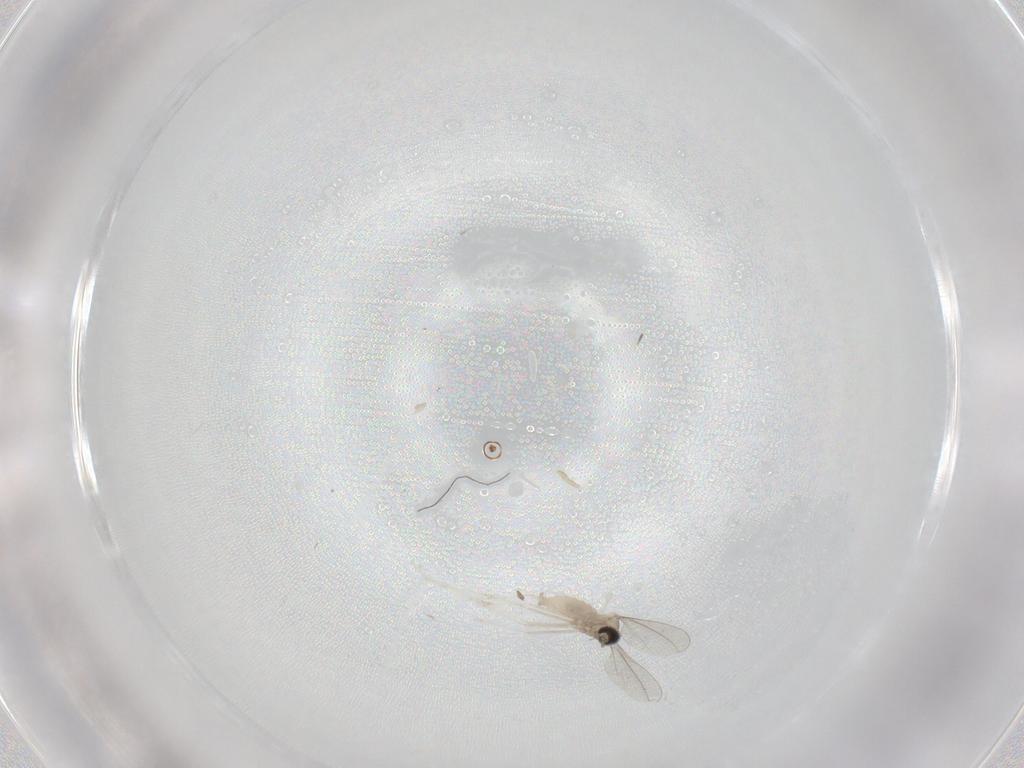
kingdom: Animalia
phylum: Arthropoda
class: Insecta
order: Diptera
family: Cecidomyiidae
